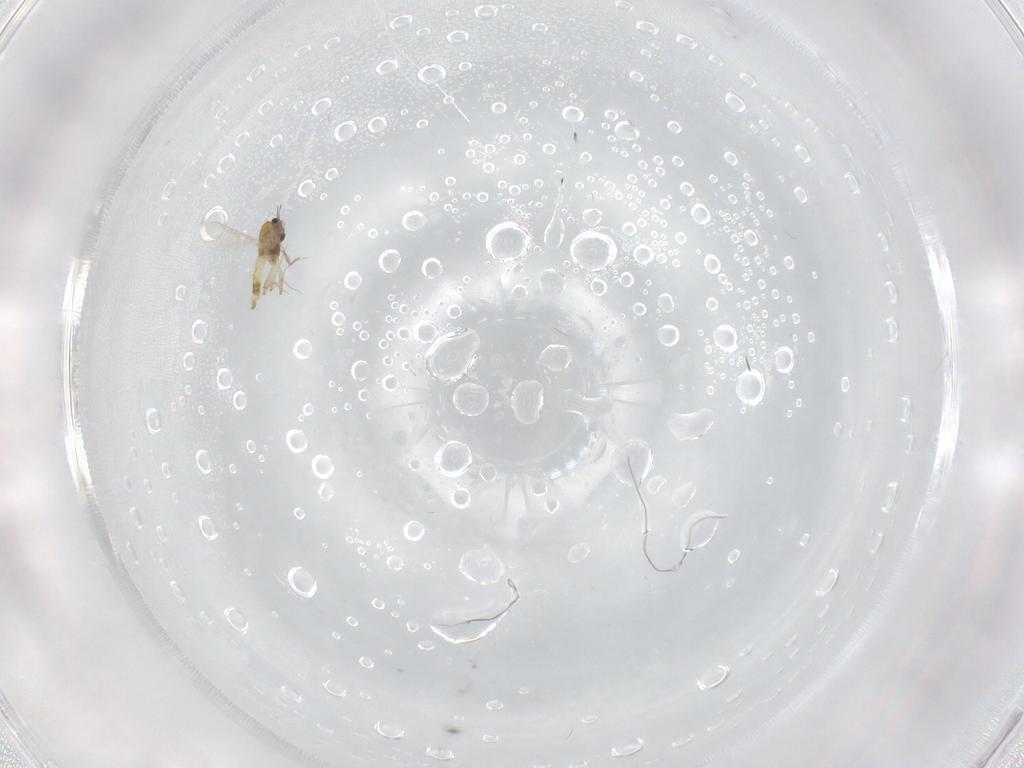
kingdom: Animalia
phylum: Arthropoda
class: Insecta
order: Diptera
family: Chironomidae
